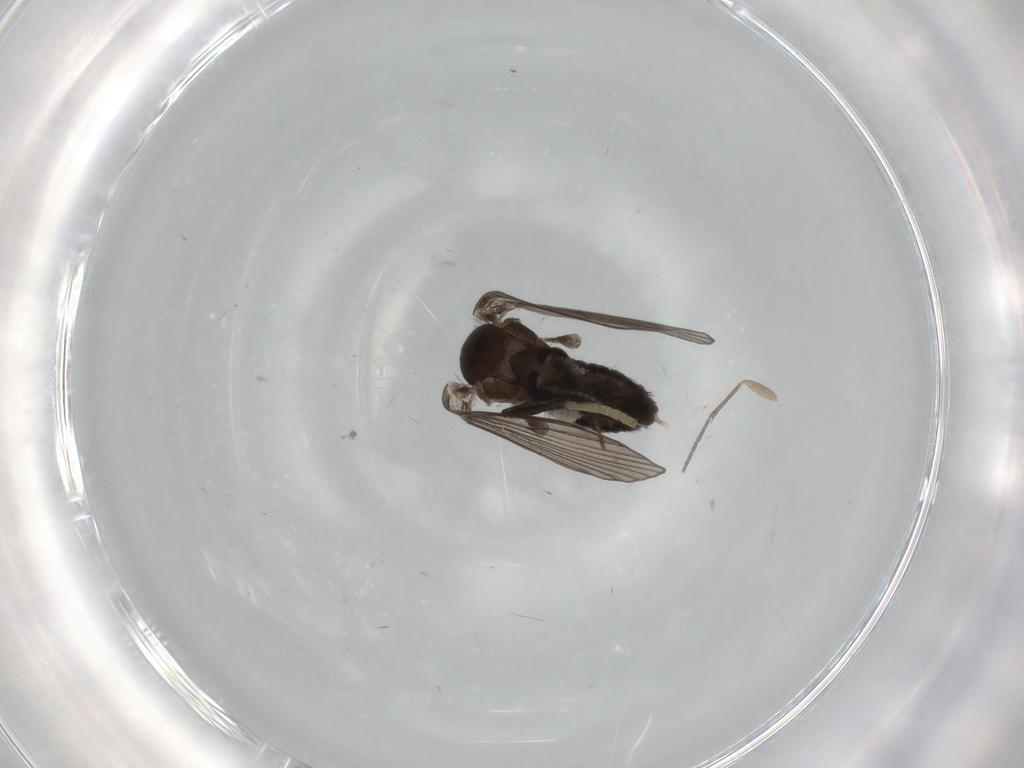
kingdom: Animalia
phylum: Arthropoda
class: Insecta
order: Diptera
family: Psychodidae
